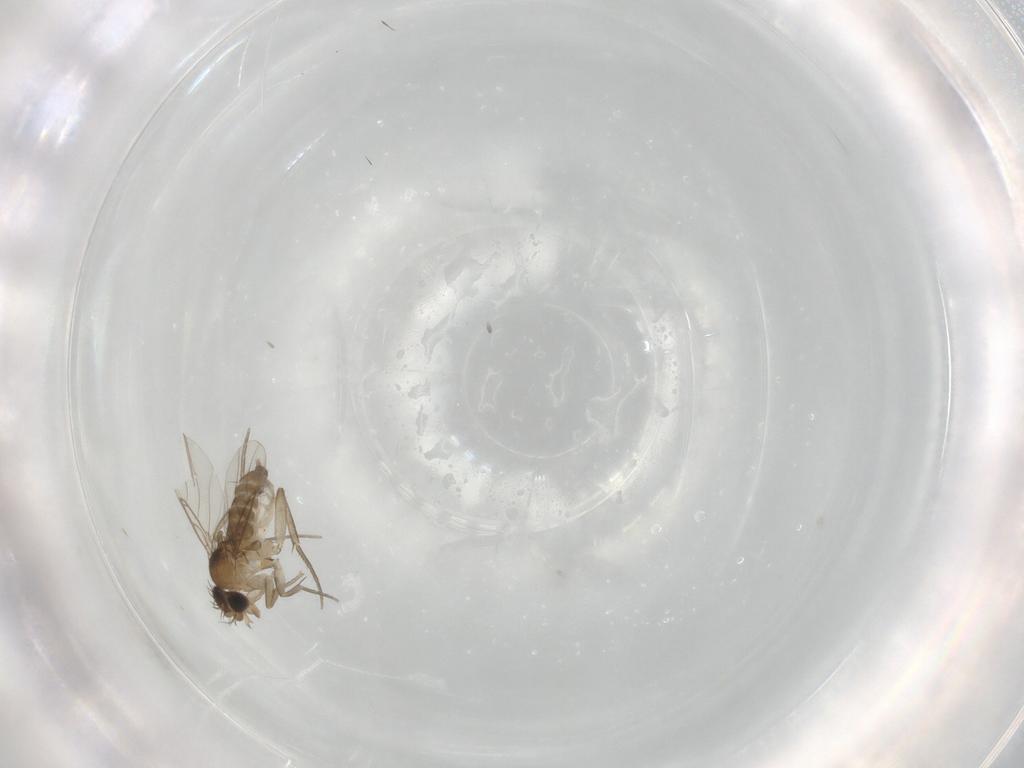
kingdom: Animalia
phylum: Arthropoda
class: Insecta
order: Diptera
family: Phoridae
